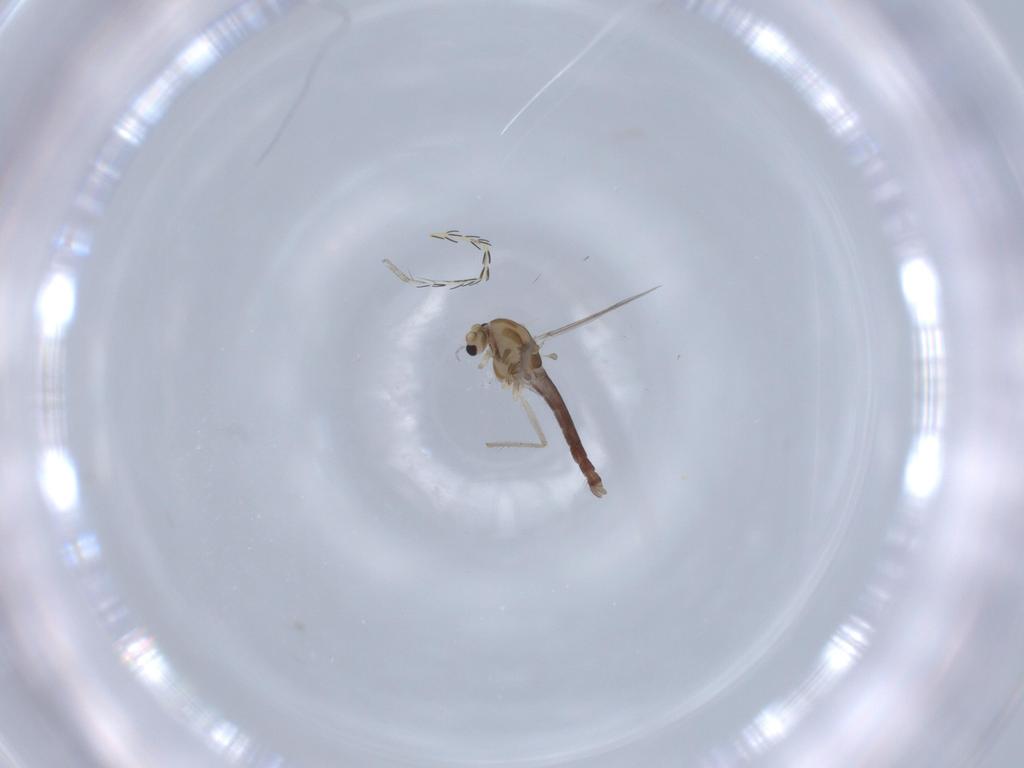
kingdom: Animalia
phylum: Arthropoda
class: Insecta
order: Diptera
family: Chironomidae
